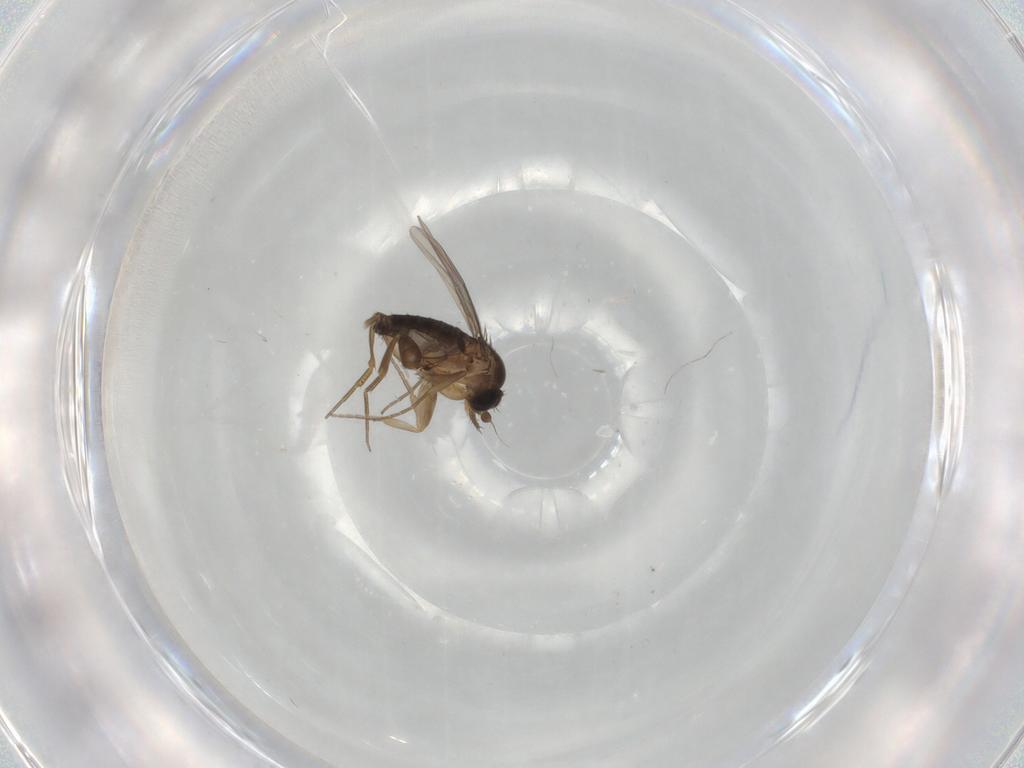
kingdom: Animalia
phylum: Arthropoda
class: Insecta
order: Diptera
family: Phoridae
